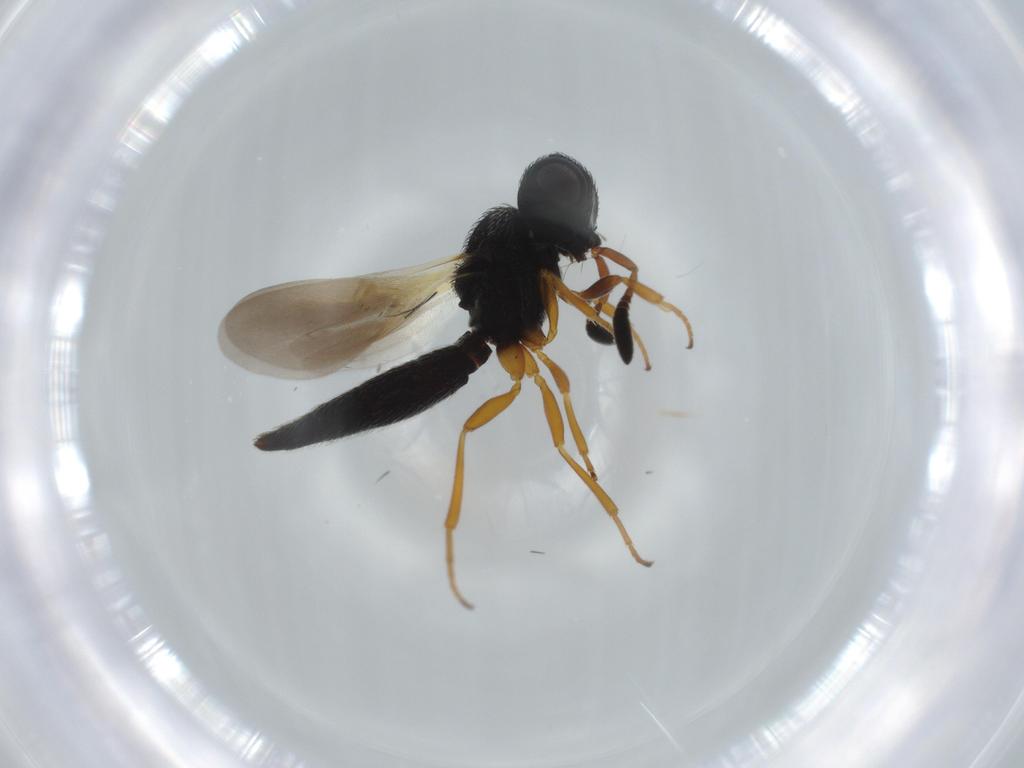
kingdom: Animalia
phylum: Arthropoda
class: Insecta
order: Hymenoptera
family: Scelionidae
